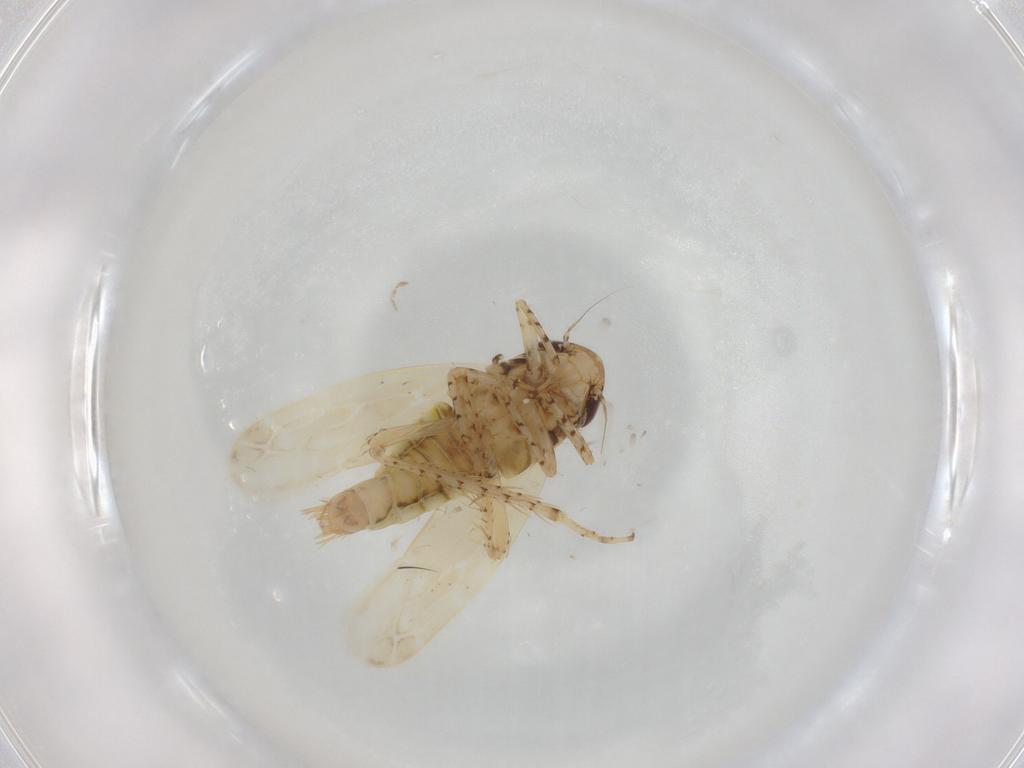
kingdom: Animalia
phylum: Arthropoda
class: Insecta
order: Hemiptera
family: Cicadellidae
